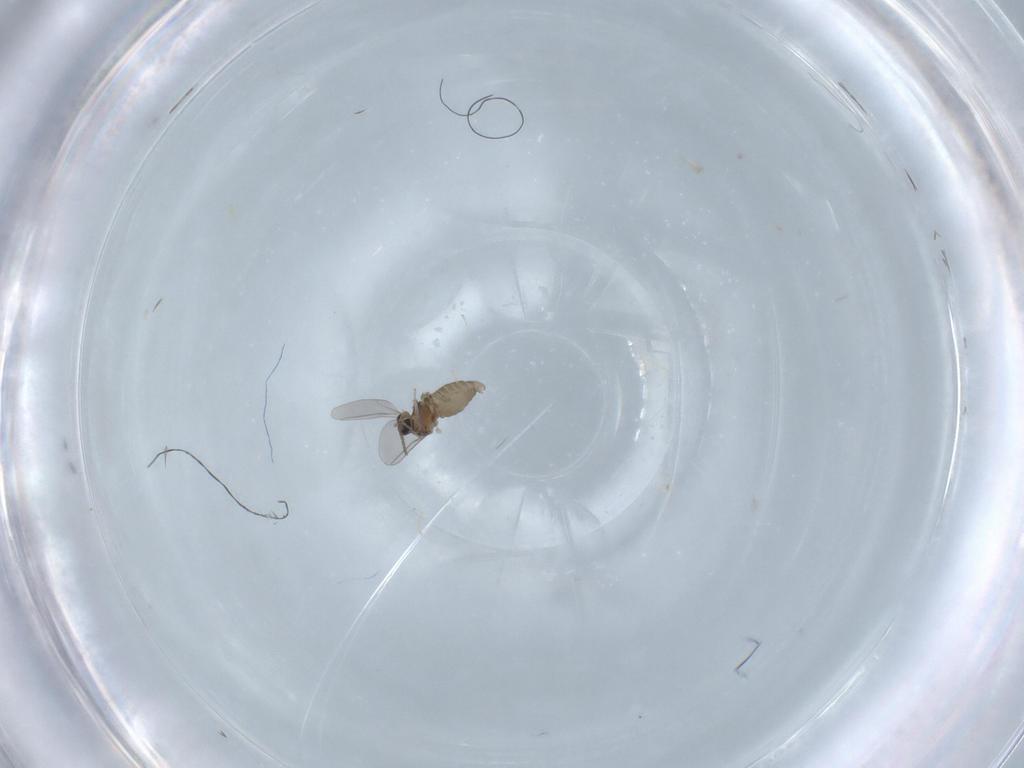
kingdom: Animalia
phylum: Arthropoda
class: Insecta
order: Diptera
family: Cecidomyiidae
